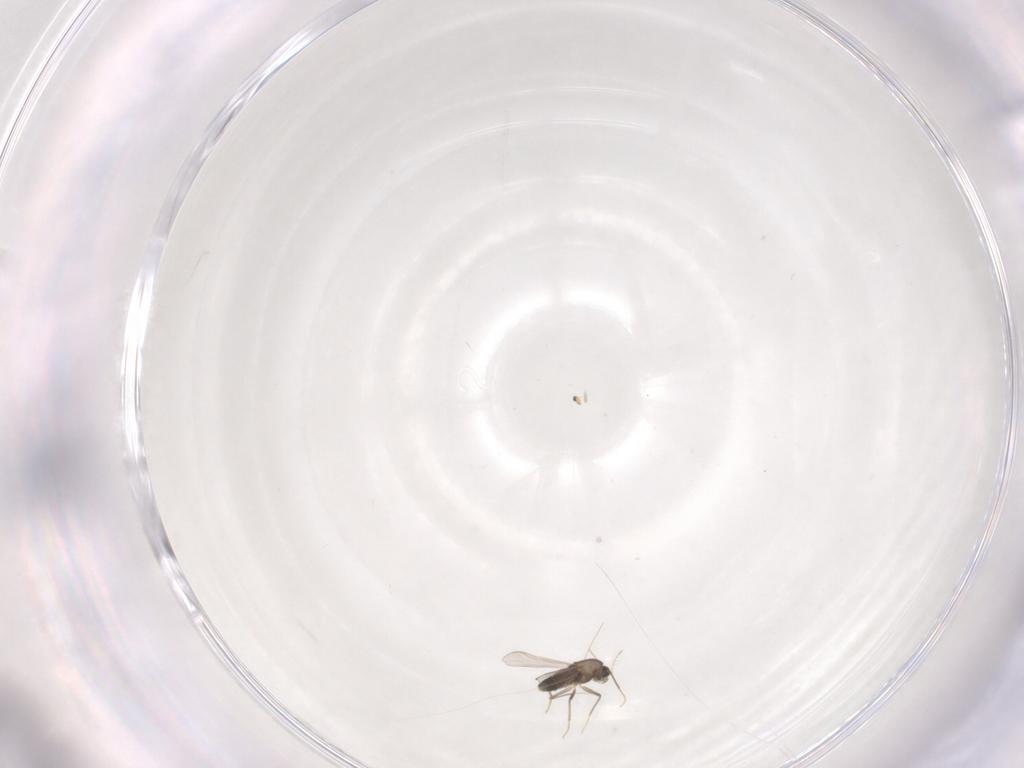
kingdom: Animalia
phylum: Arthropoda
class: Insecta
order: Diptera
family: Chironomidae
